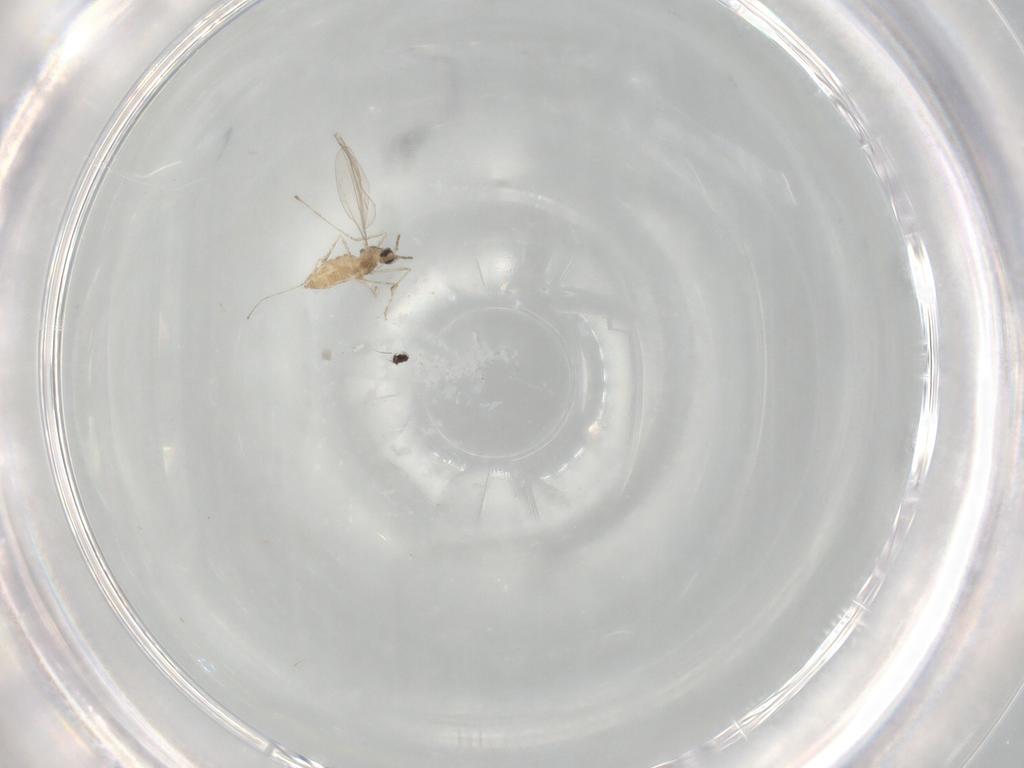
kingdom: Animalia
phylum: Arthropoda
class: Insecta
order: Diptera
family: Cecidomyiidae
